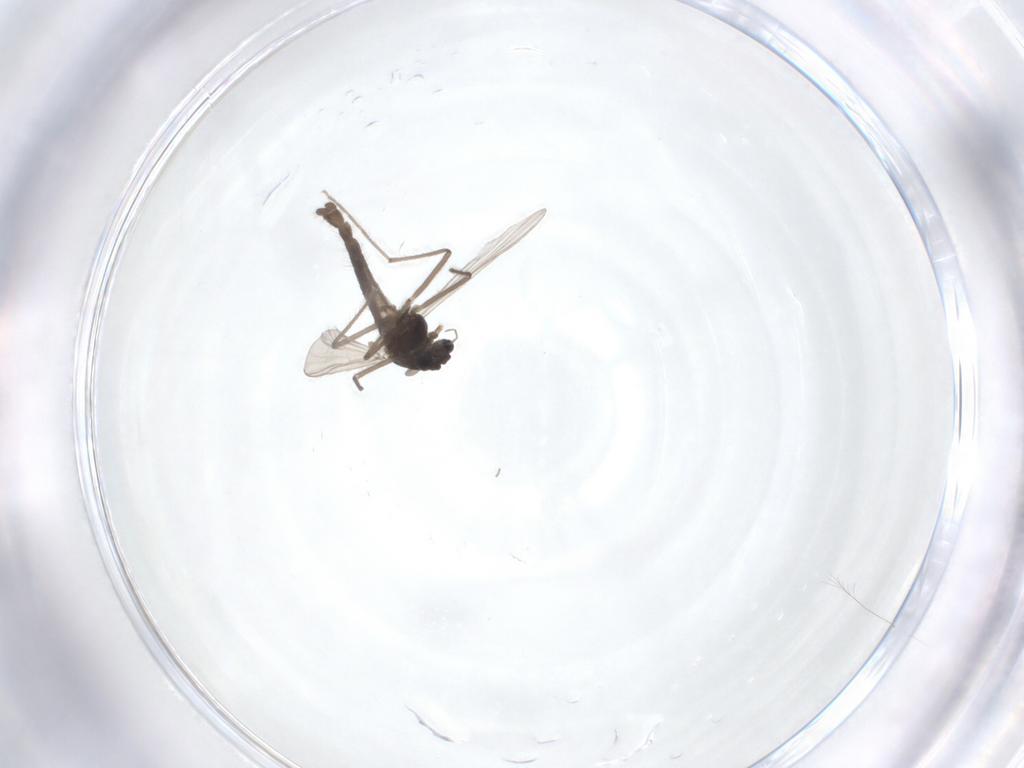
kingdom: Animalia
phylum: Arthropoda
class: Insecta
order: Diptera
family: Chironomidae
